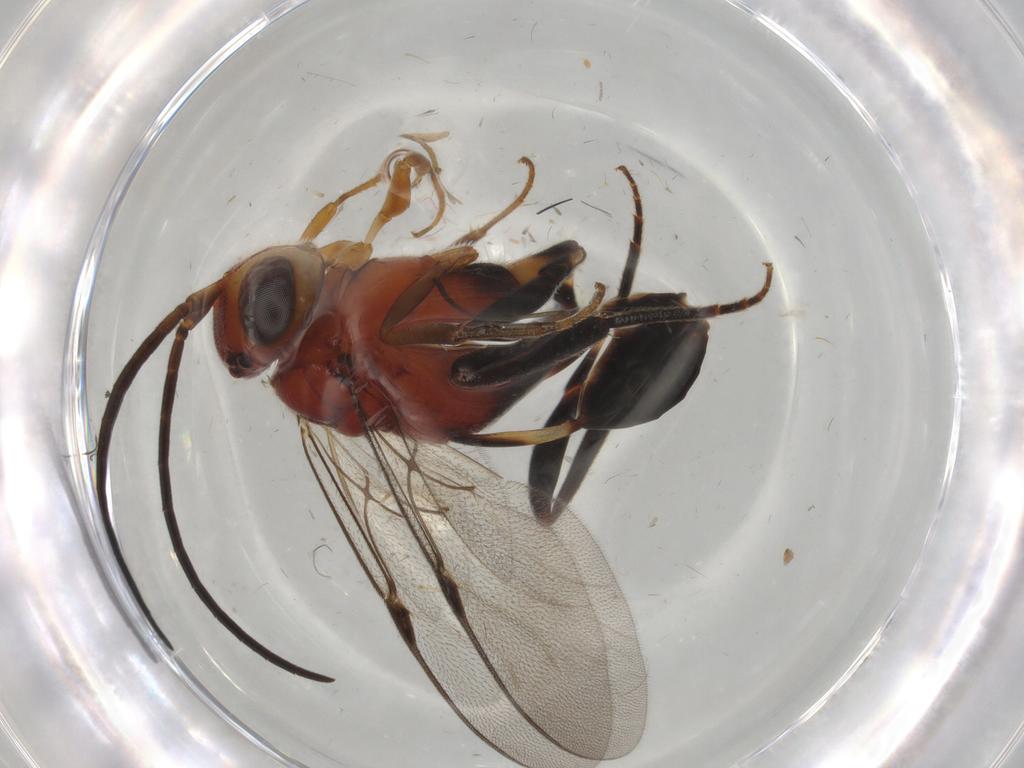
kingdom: Animalia
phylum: Arthropoda
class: Insecta
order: Hymenoptera
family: Evaniidae
